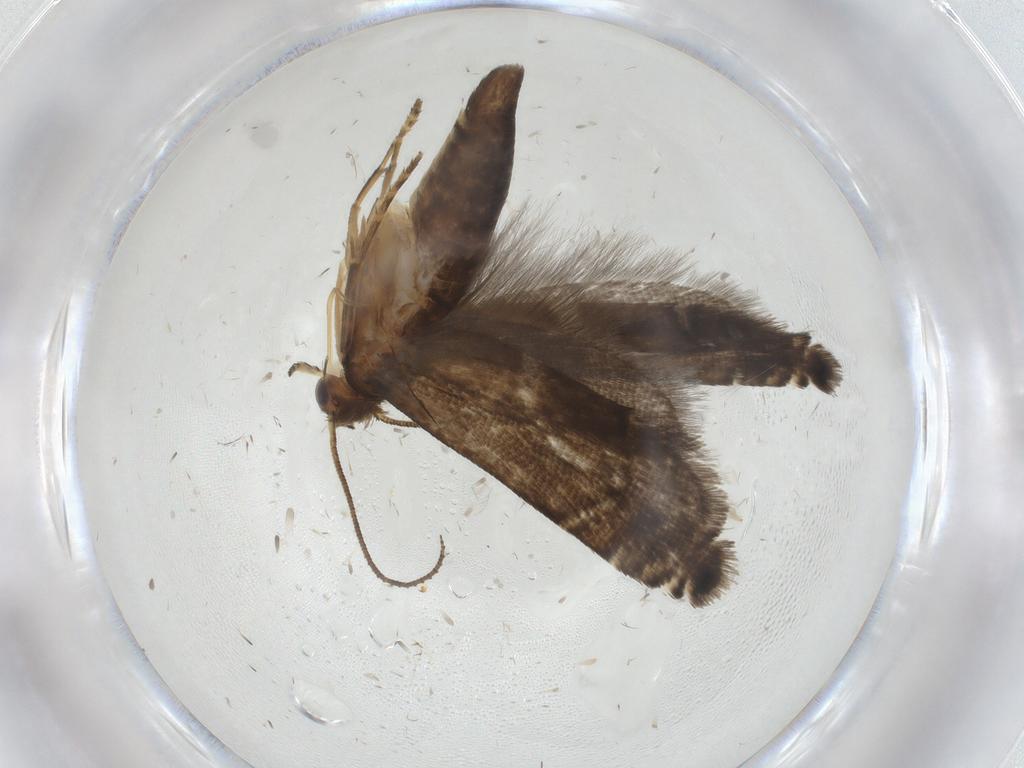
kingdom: Animalia
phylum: Arthropoda
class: Insecta
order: Lepidoptera
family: Glyphipterigidae
